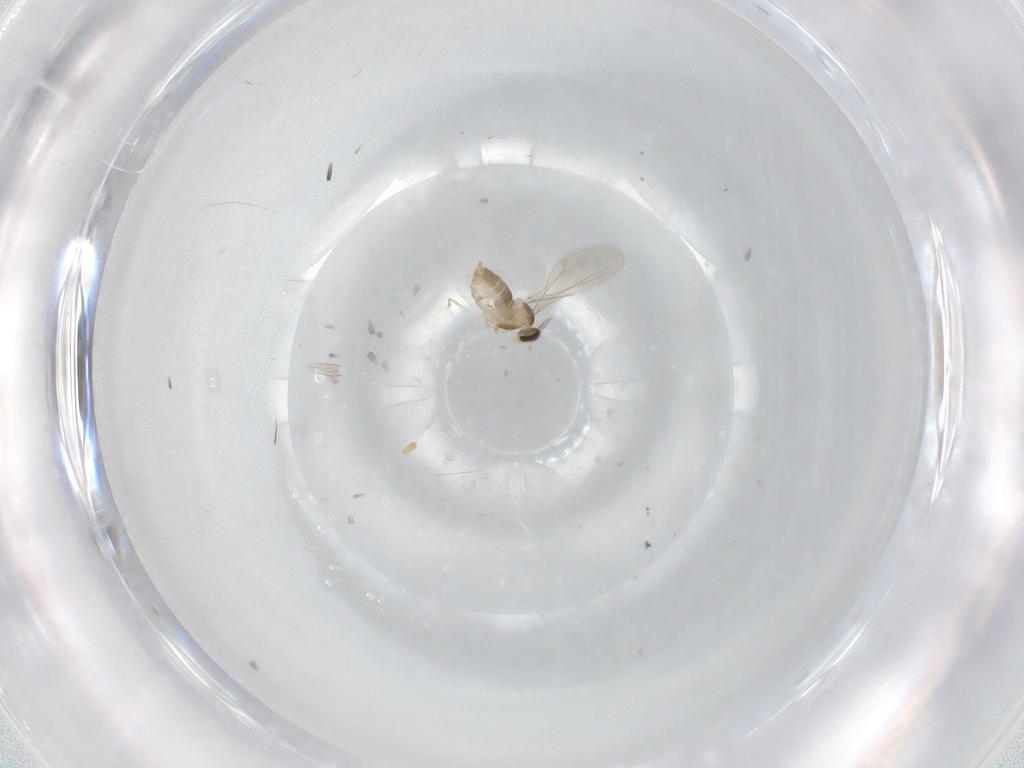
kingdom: Animalia
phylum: Arthropoda
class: Insecta
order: Diptera
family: Cecidomyiidae
